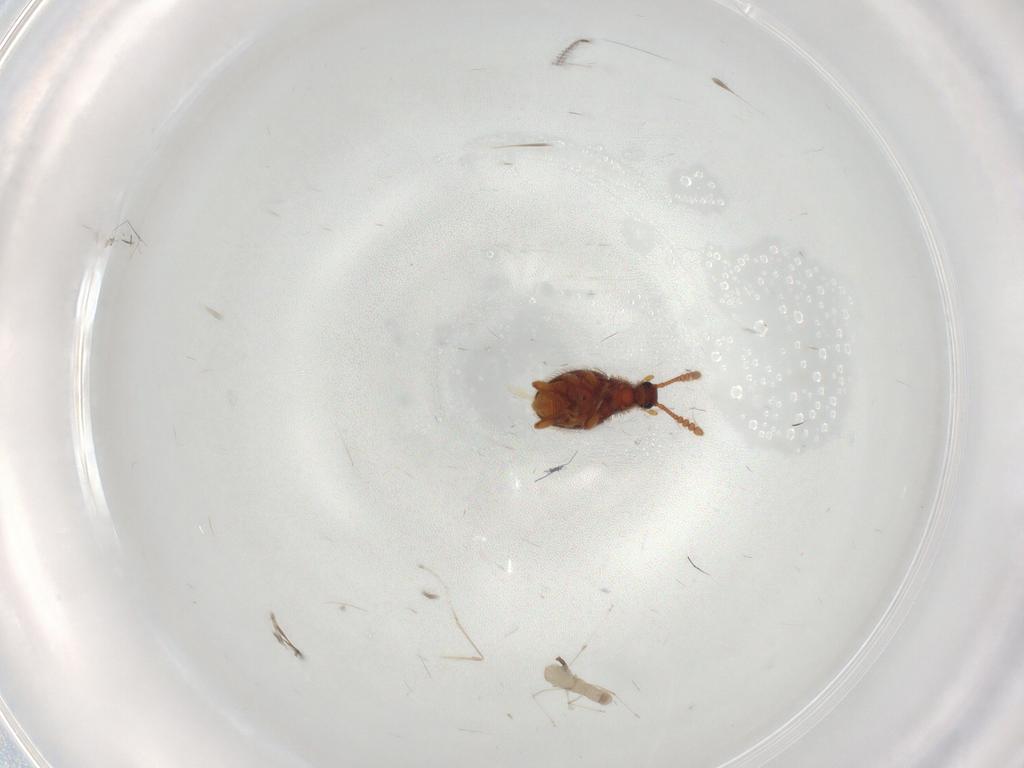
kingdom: Animalia
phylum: Arthropoda
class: Insecta
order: Coleoptera
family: Staphylinidae
